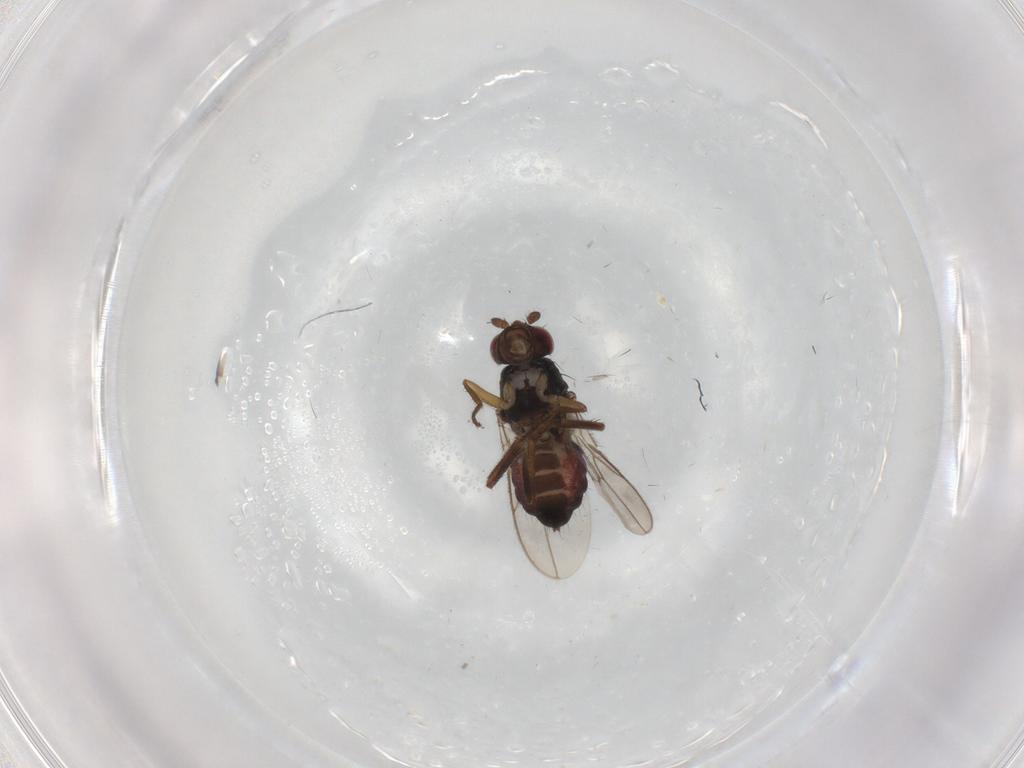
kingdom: Animalia
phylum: Arthropoda
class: Insecta
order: Diptera
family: Sphaeroceridae
